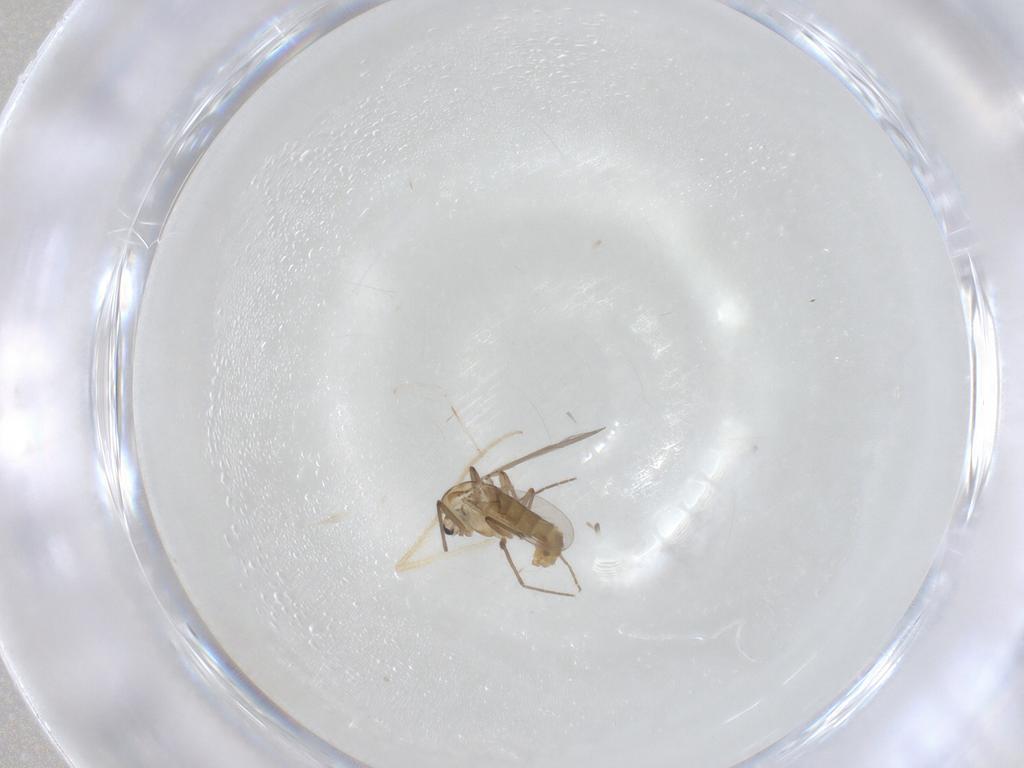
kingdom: Animalia
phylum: Arthropoda
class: Insecta
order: Diptera
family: Chironomidae
